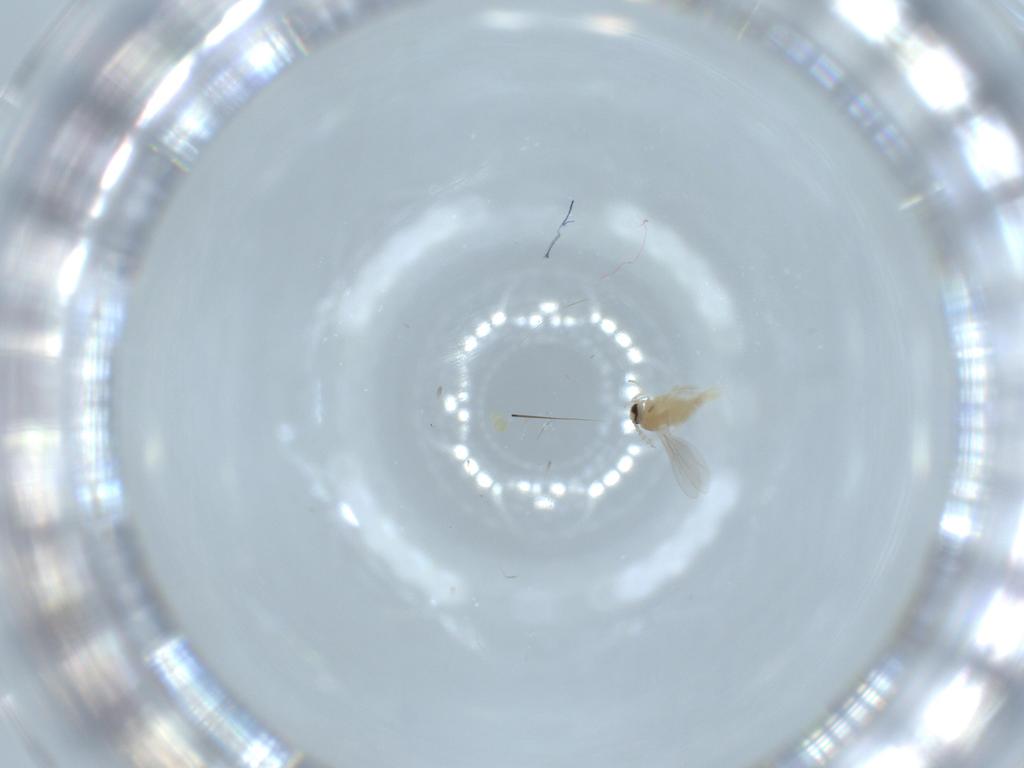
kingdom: Animalia
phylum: Arthropoda
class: Insecta
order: Diptera
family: Cecidomyiidae
